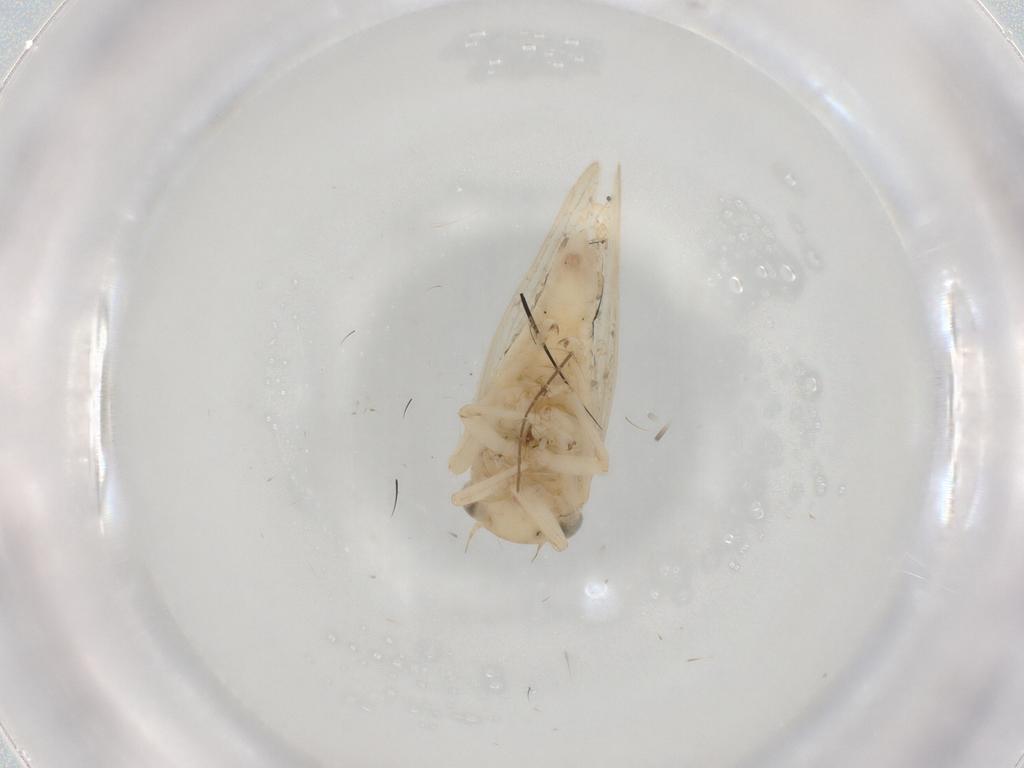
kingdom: Animalia
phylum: Arthropoda
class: Insecta
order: Hemiptera
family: Cicadellidae
